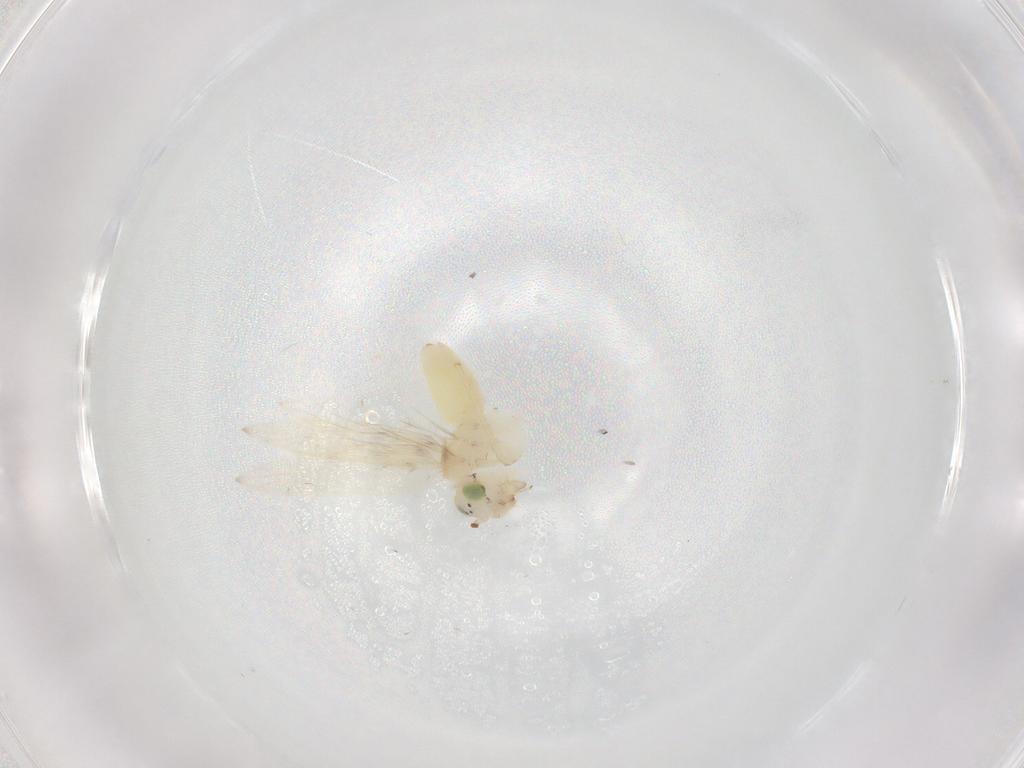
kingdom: Animalia
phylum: Arthropoda
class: Insecta
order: Psocodea
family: Lepidopsocidae
